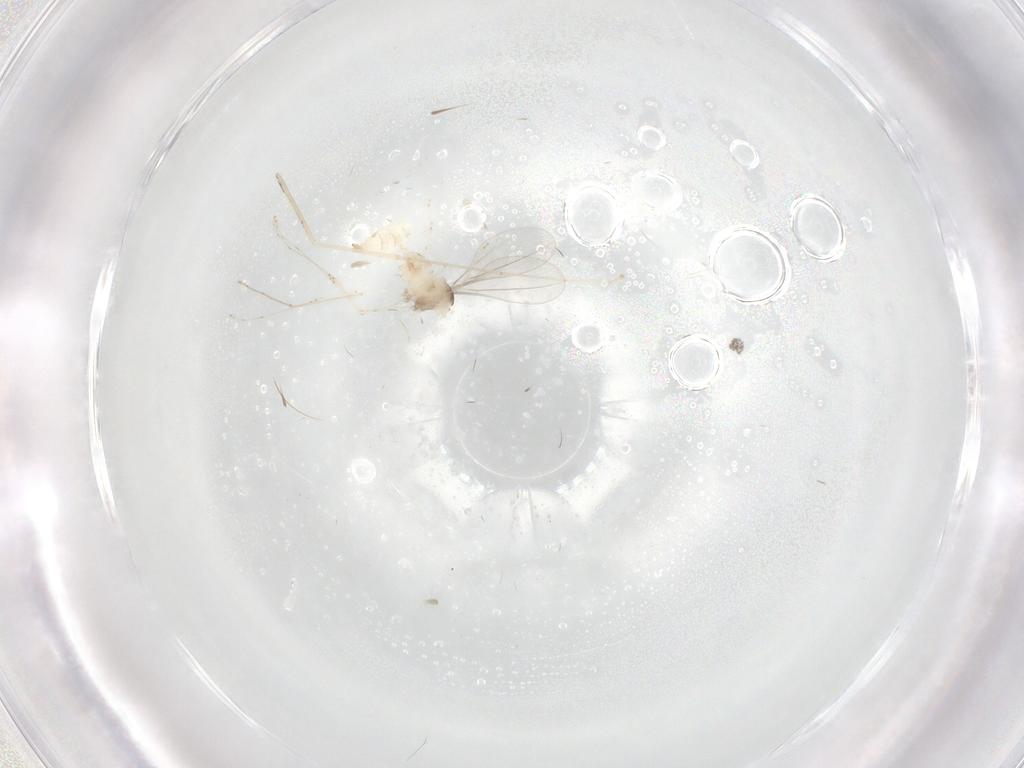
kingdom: Animalia
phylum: Arthropoda
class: Insecta
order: Diptera
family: Cecidomyiidae
